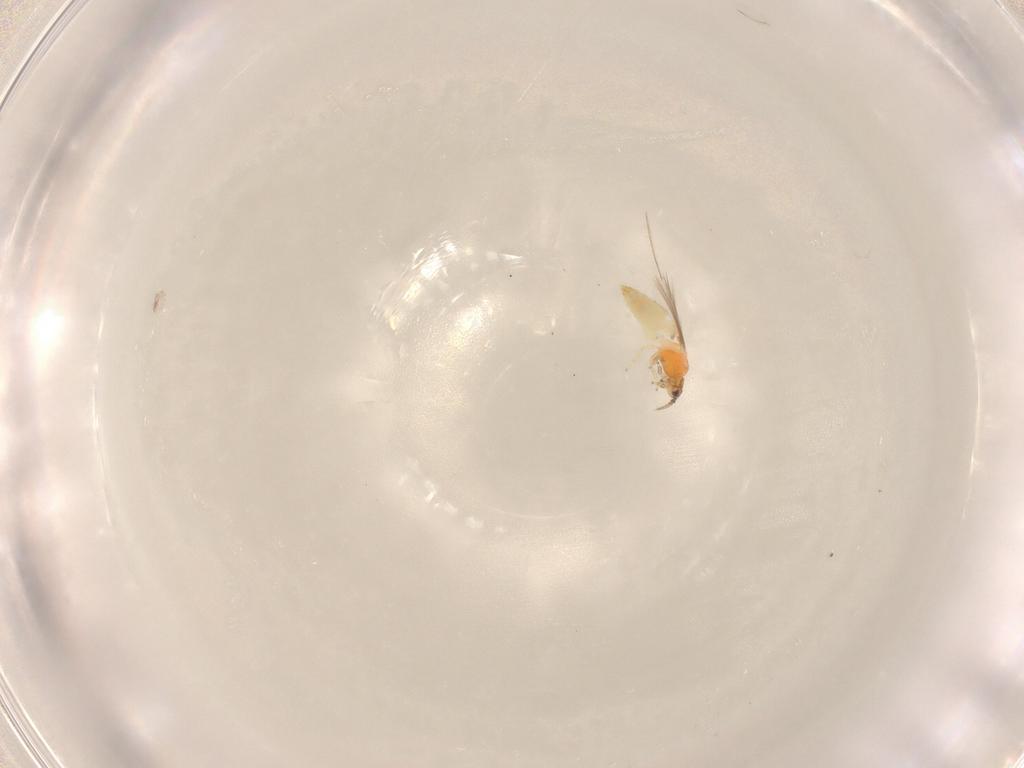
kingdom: Animalia
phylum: Arthropoda
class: Insecta
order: Thysanoptera
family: Thripidae
